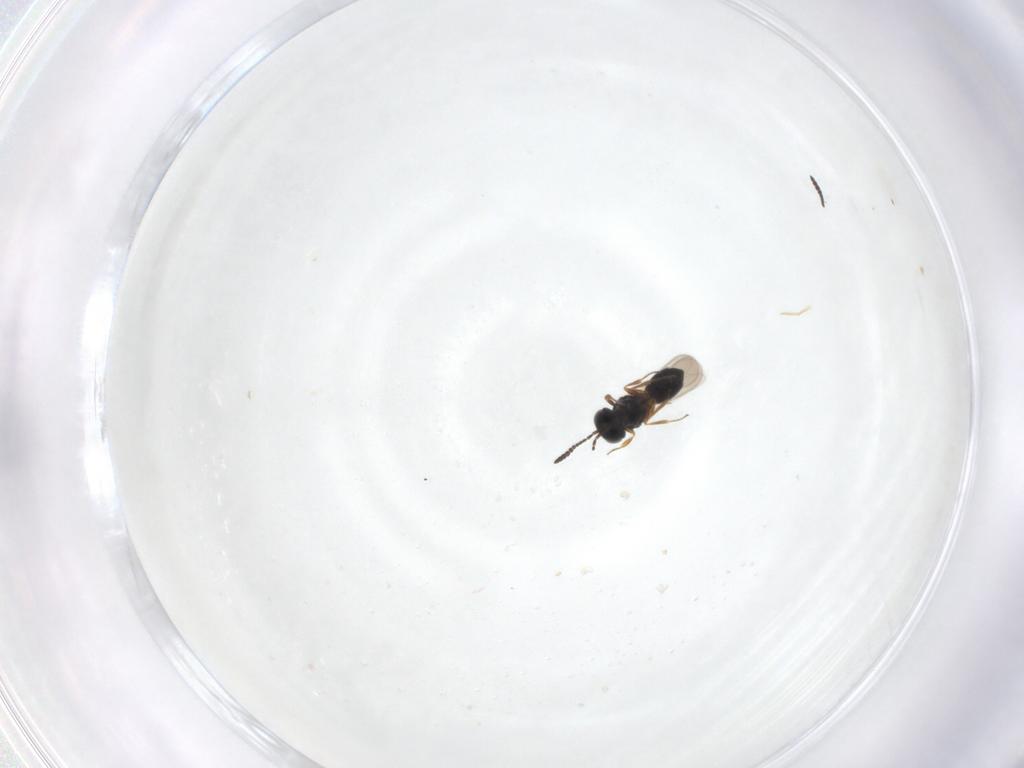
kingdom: Animalia
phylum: Arthropoda
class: Insecta
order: Hymenoptera
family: Scelionidae
